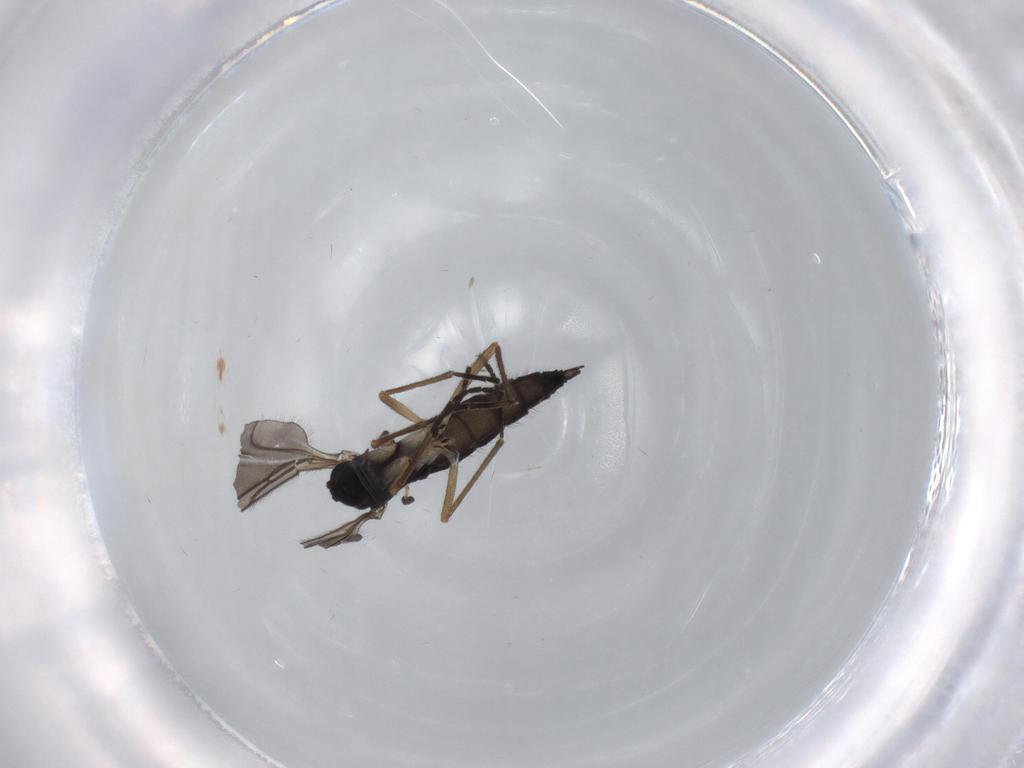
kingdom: Animalia
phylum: Arthropoda
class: Insecta
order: Diptera
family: Sciaridae
